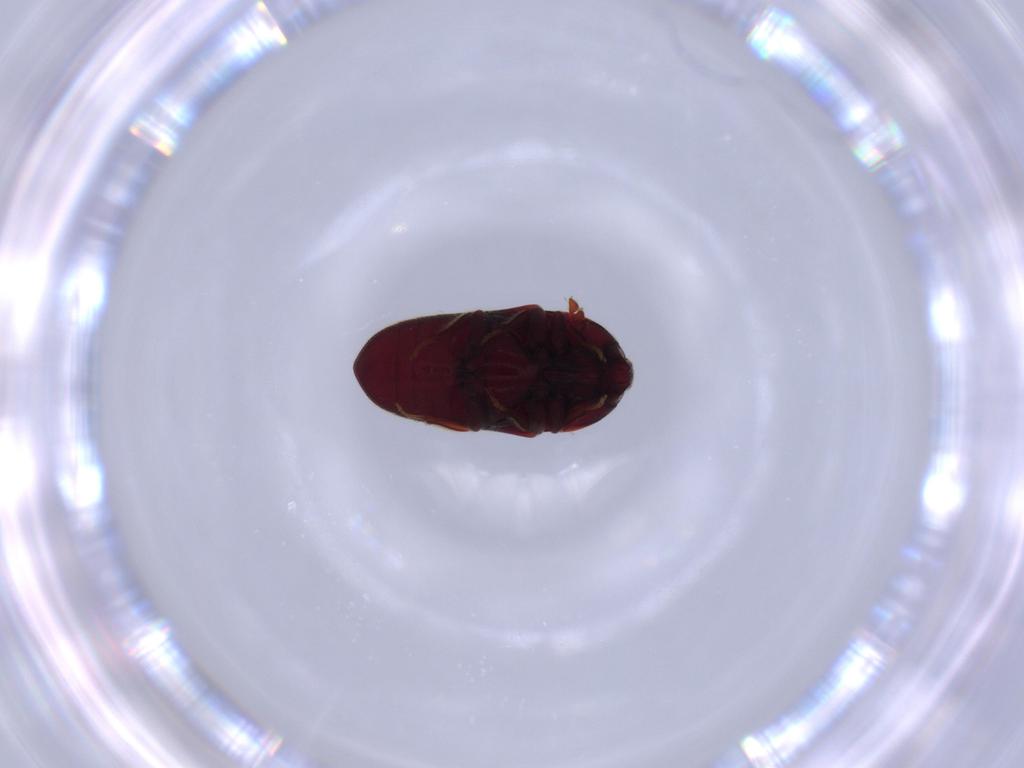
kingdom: Animalia
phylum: Arthropoda
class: Insecta
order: Coleoptera
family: Throscidae
